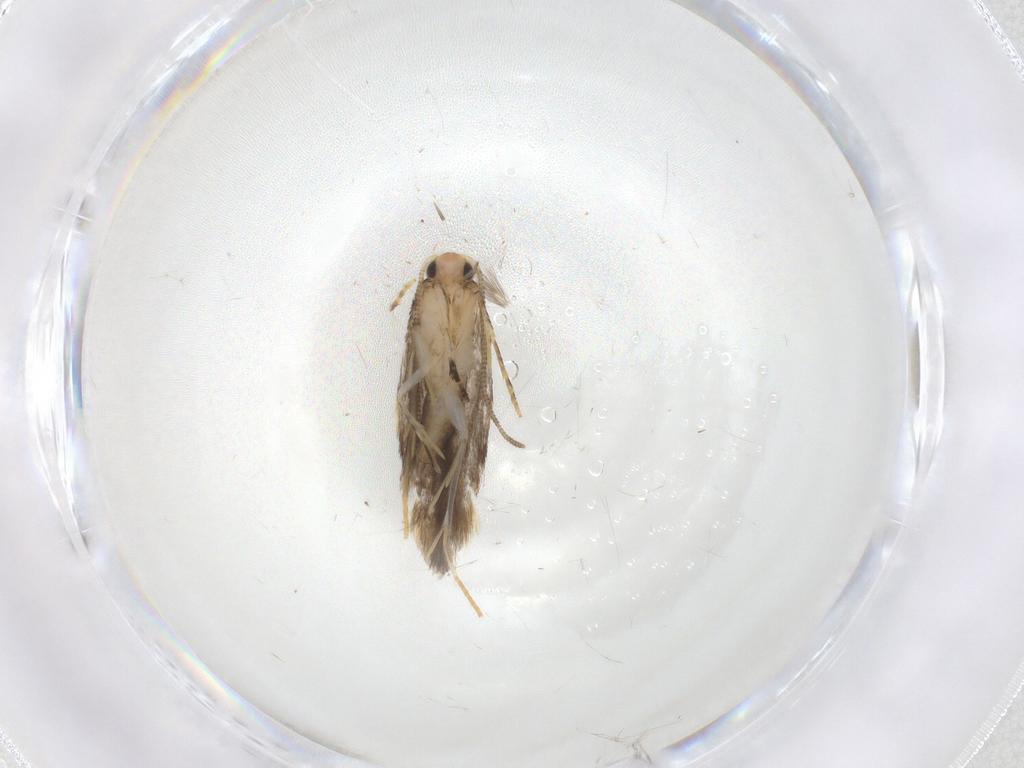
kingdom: Animalia
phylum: Arthropoda
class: Insecta
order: Lepidoptera
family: Tineidae
